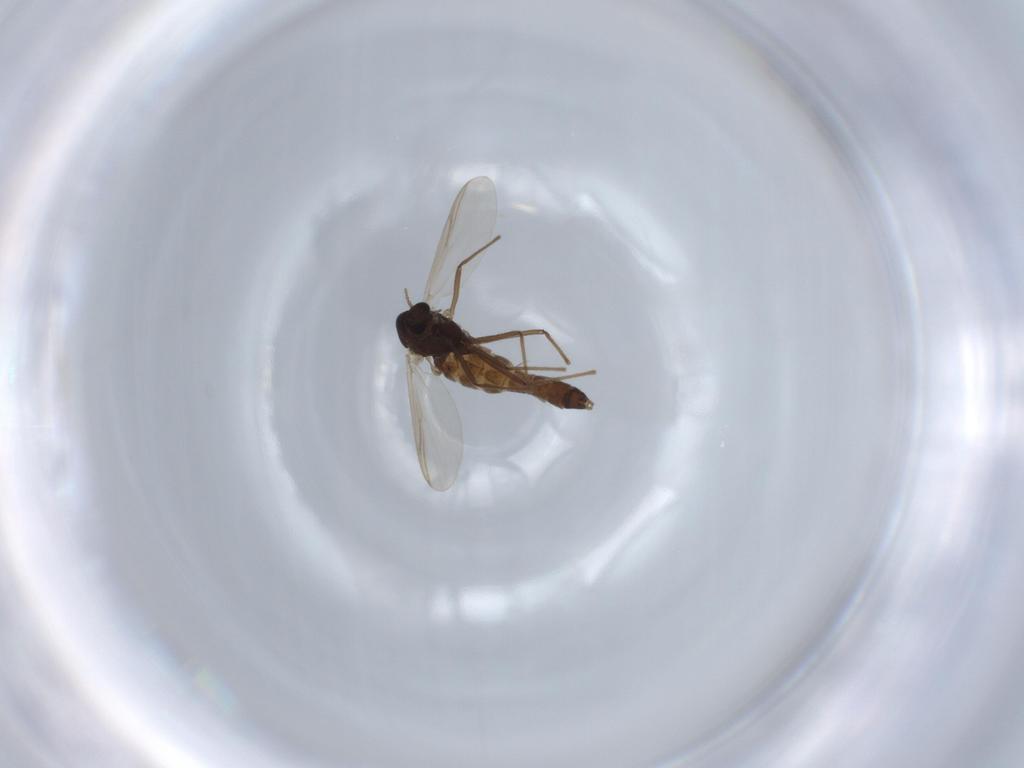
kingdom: Animalia
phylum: Arthropoda
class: Insecta
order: Diptera
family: Chironomidae
